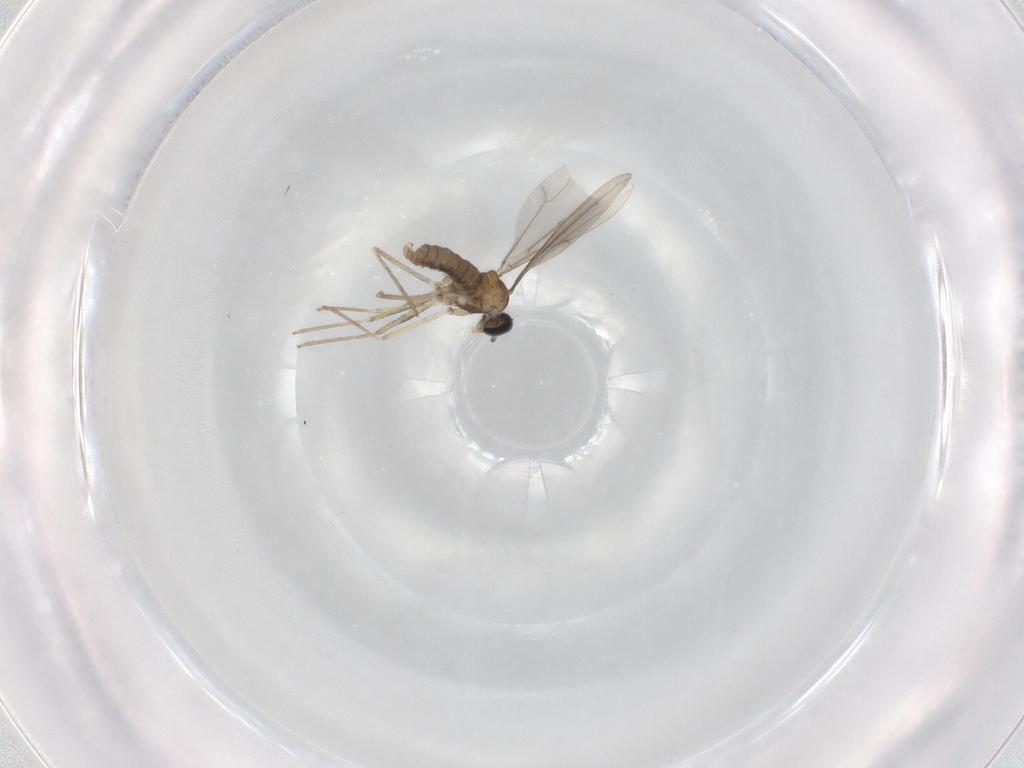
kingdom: Animalia
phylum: Arthropoda
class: Insecta
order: Diptera
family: Cecidomyiidae
